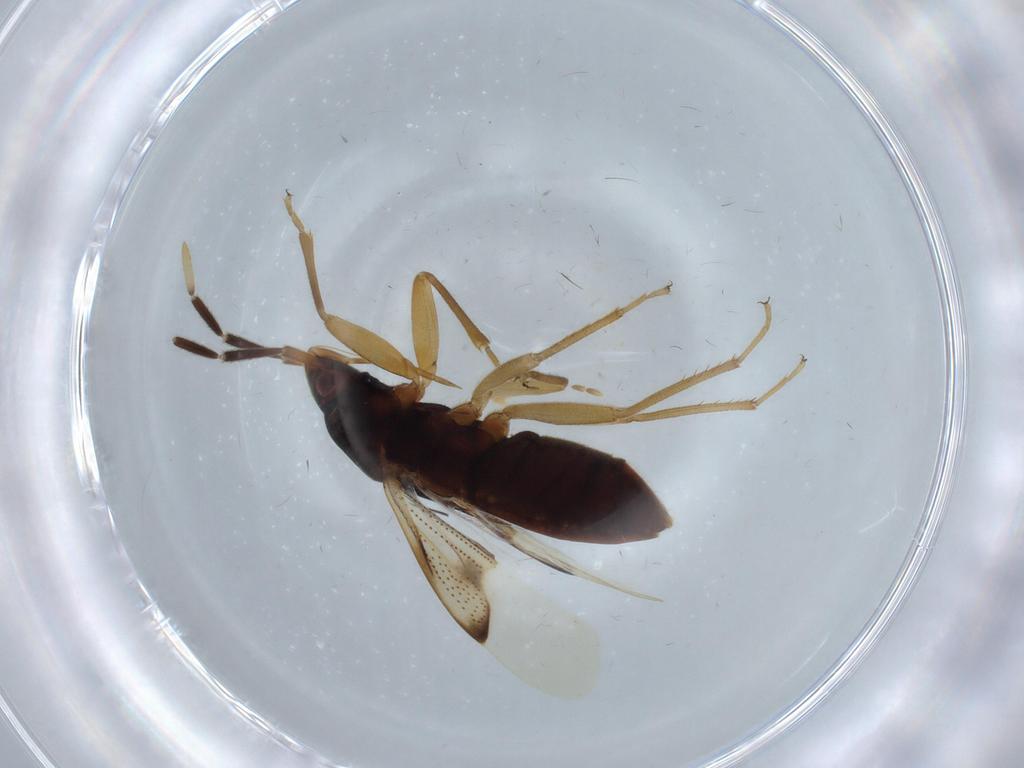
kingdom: Animalia
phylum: Arthropoda
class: Insecta
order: Hemiptera
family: Rhyparochromidae
